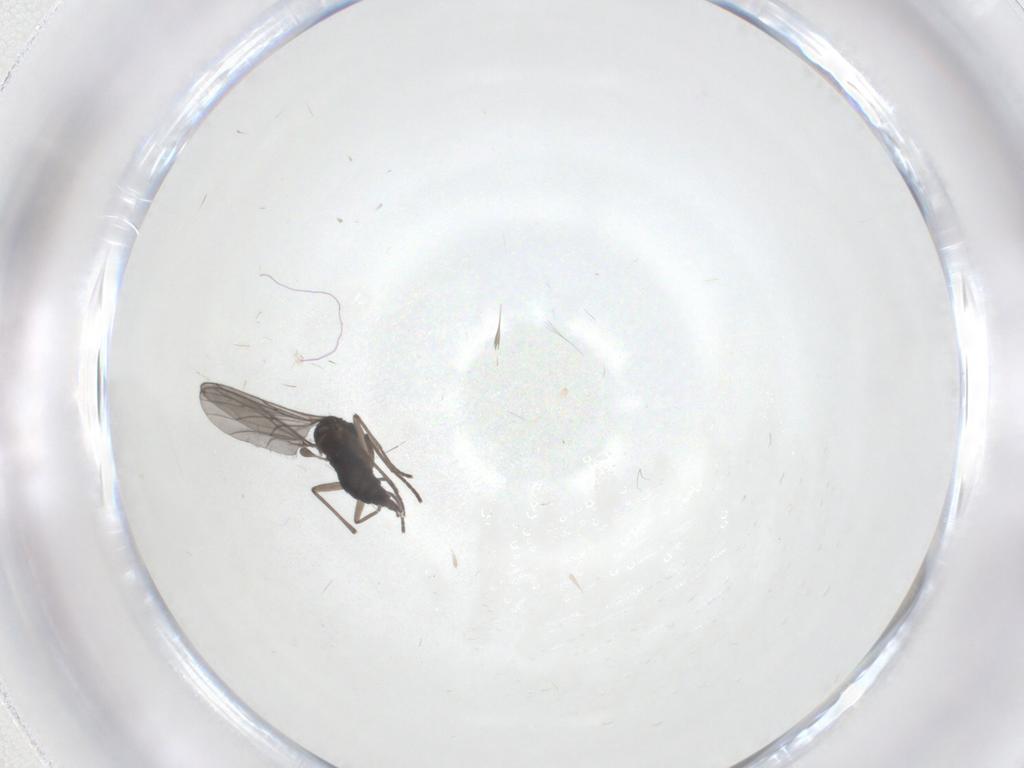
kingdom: Animalia
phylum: Arthropoda
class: Insecta
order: Diptera
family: Sciaridae
